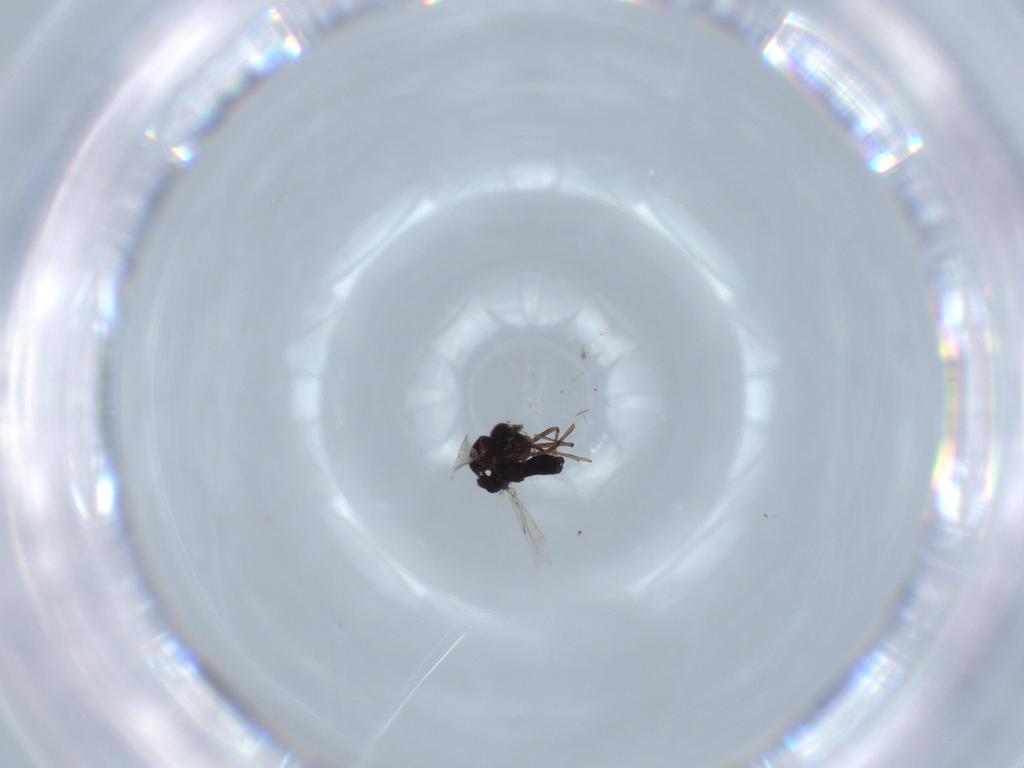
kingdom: Animalia
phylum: Arthropoda
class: Insecta
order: Diptera
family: Ceratopogonidae
